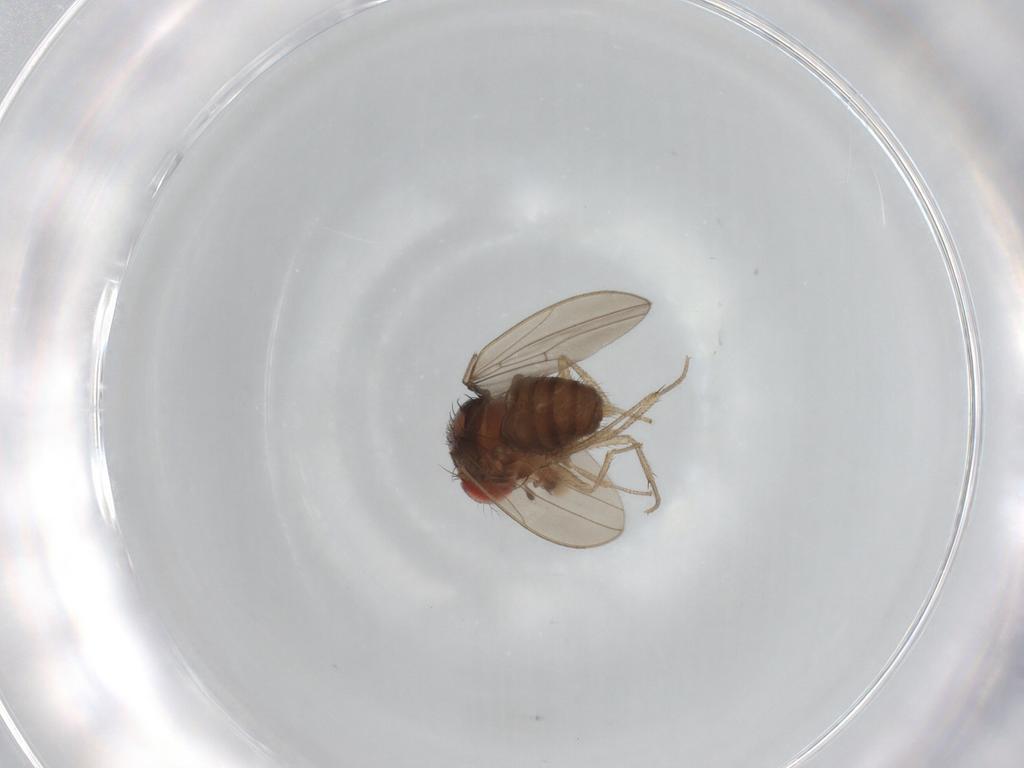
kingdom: Animalia
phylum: Arthropoda
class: Insecta
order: Diptera
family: Drosophilidae
